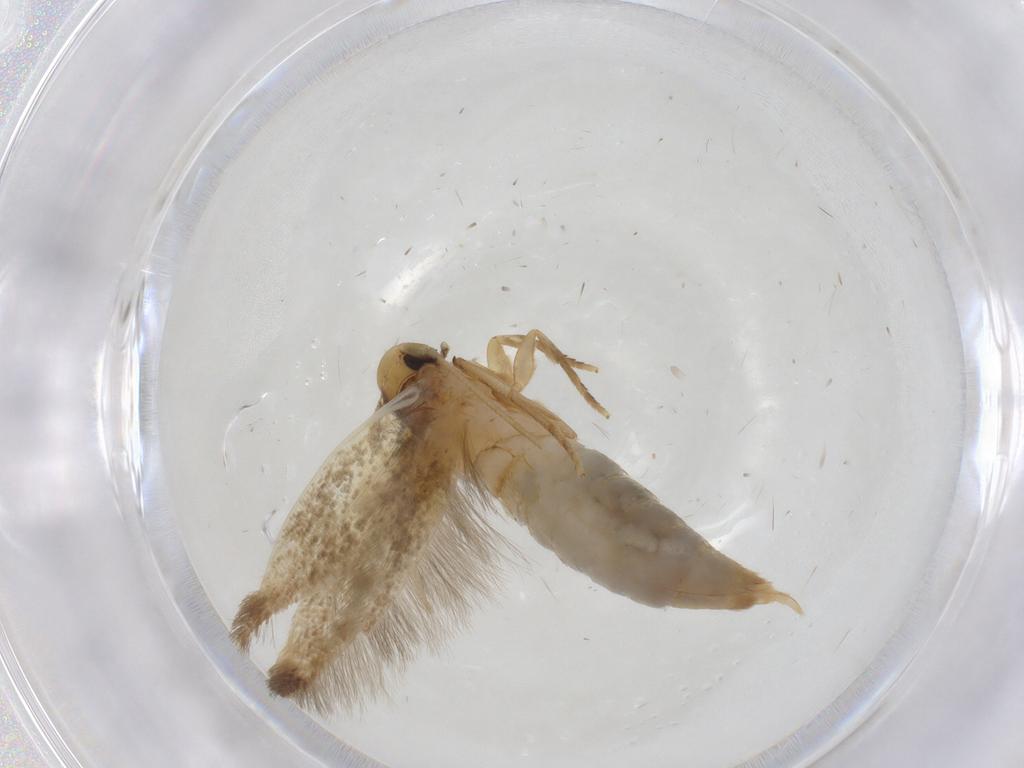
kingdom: Animalia
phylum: Arthropoda
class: Insecta
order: Lepidoptera
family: Tineidae
